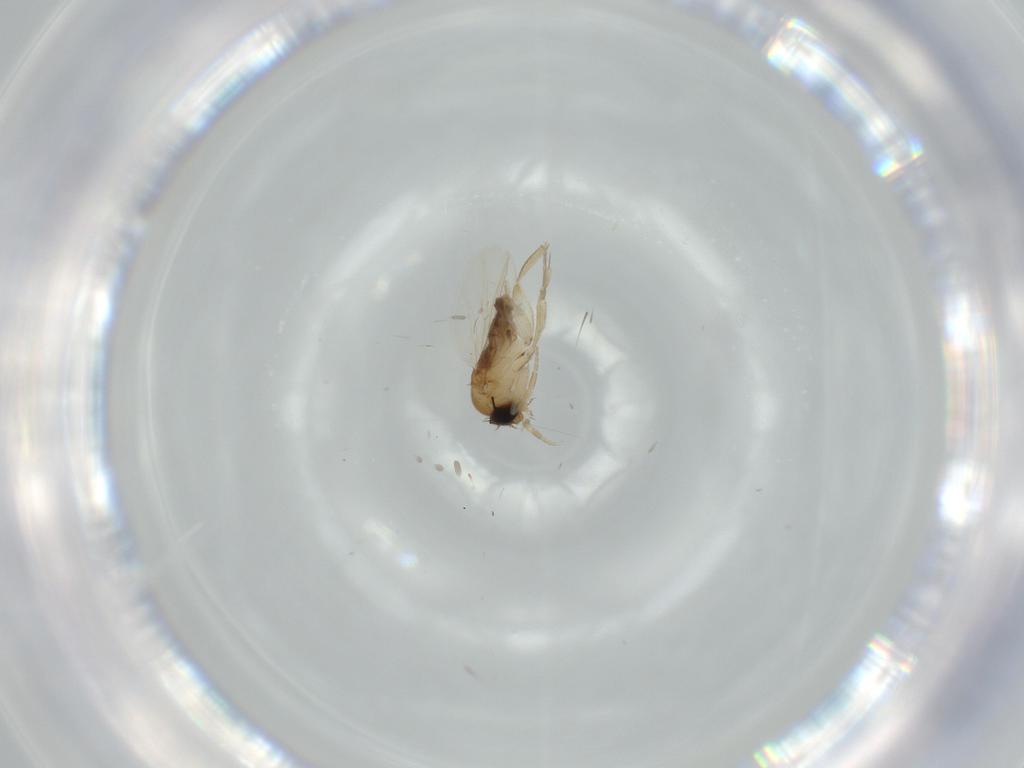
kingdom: Animalia
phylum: Arthropoda
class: Insecta
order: Diptera
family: Phoridae
